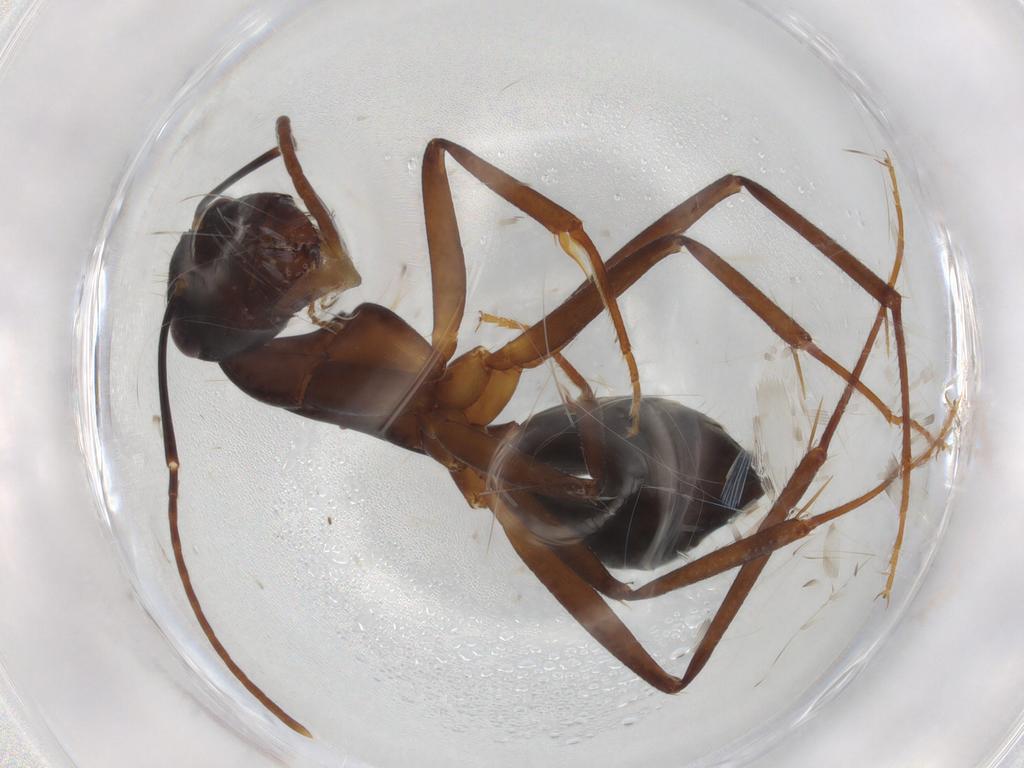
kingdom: Animalia
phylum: Arthropoda
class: Insecta
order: Hymenoptera
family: Formicidae
